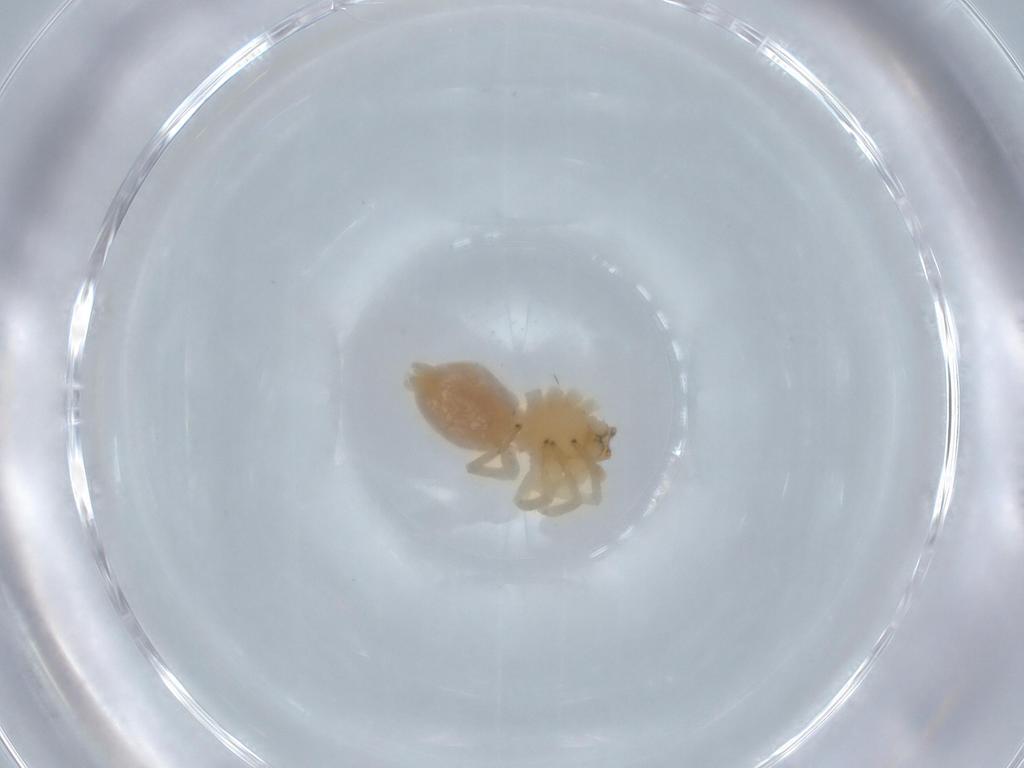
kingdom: Animalia
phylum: Arthropoda
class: Arachnida
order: Araneae
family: Cheiracanthiidae
